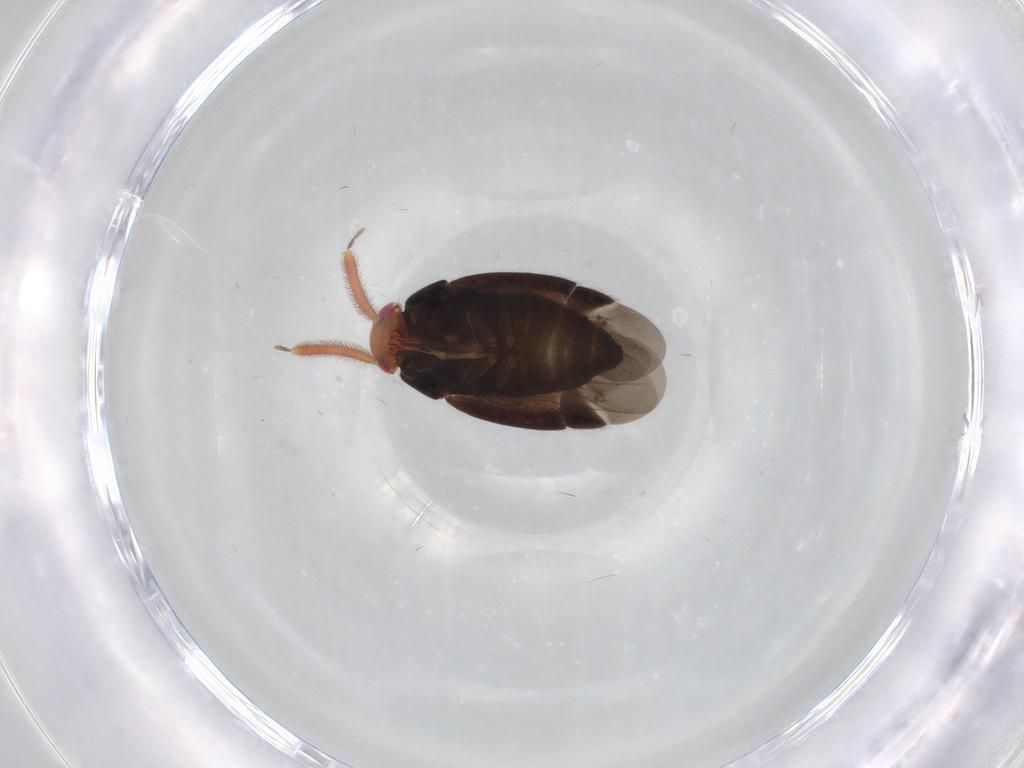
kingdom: Animalia
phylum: Arthropoda
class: Insecta
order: Hemiptera
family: Miridae
